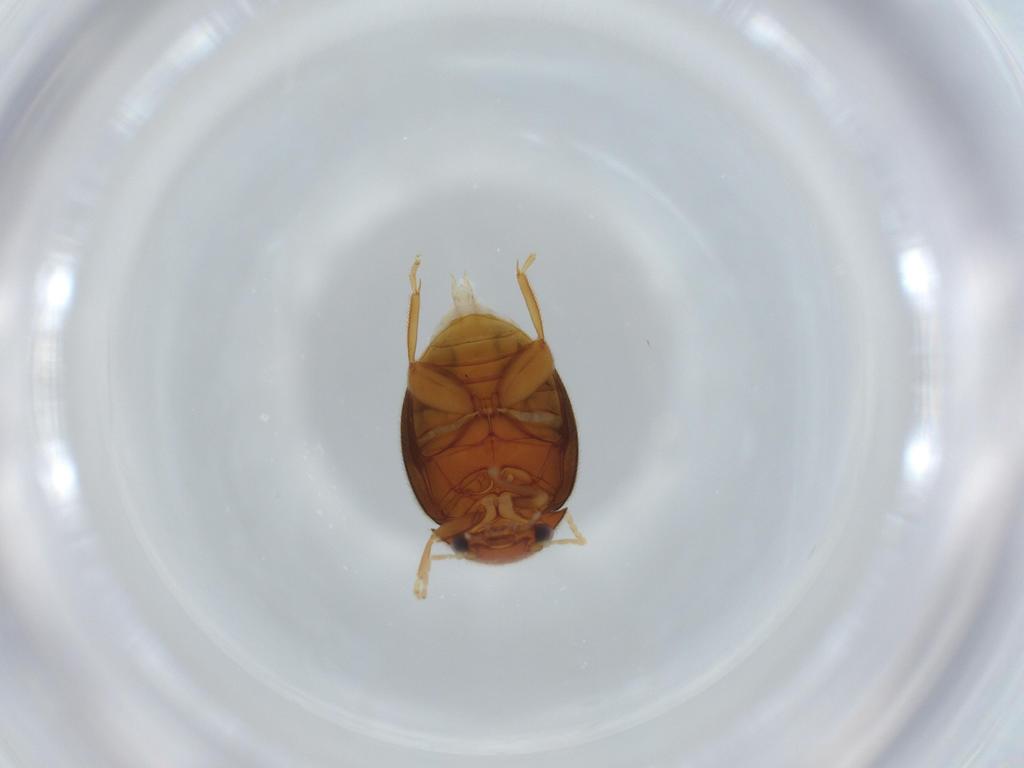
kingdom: Animalia
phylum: Arthropoda
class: Insecta
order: Coleoptera
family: Scirtidae
